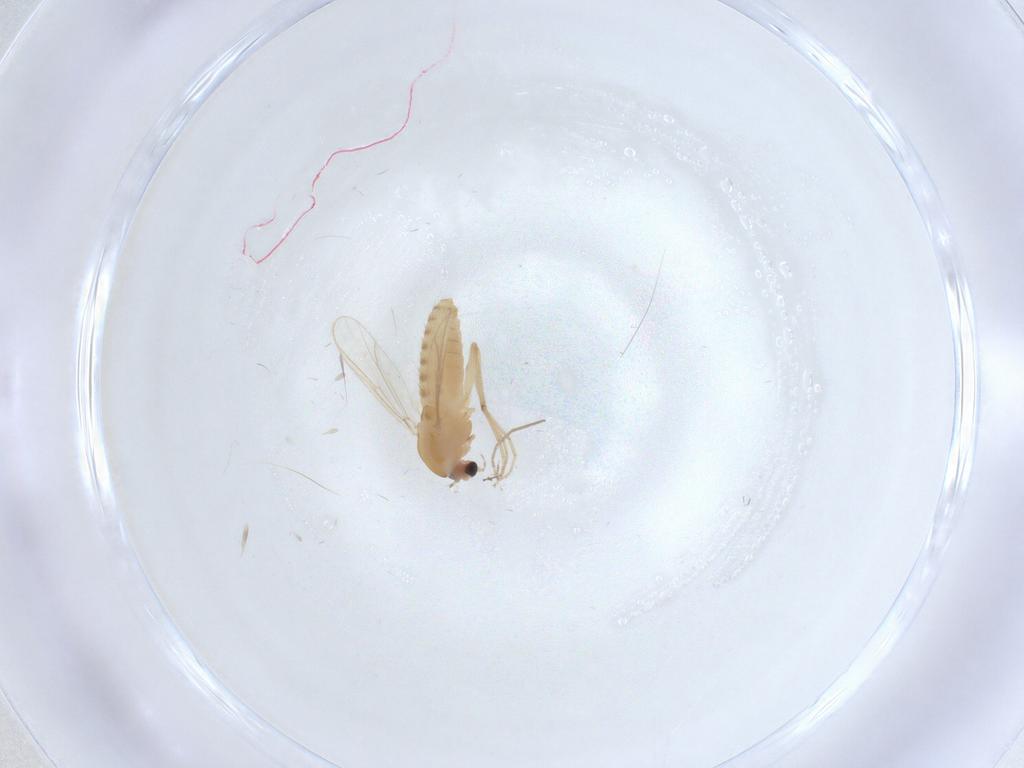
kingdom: Animalia
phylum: Arthropoda
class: Insecta
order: Diptera
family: Chironomidae
